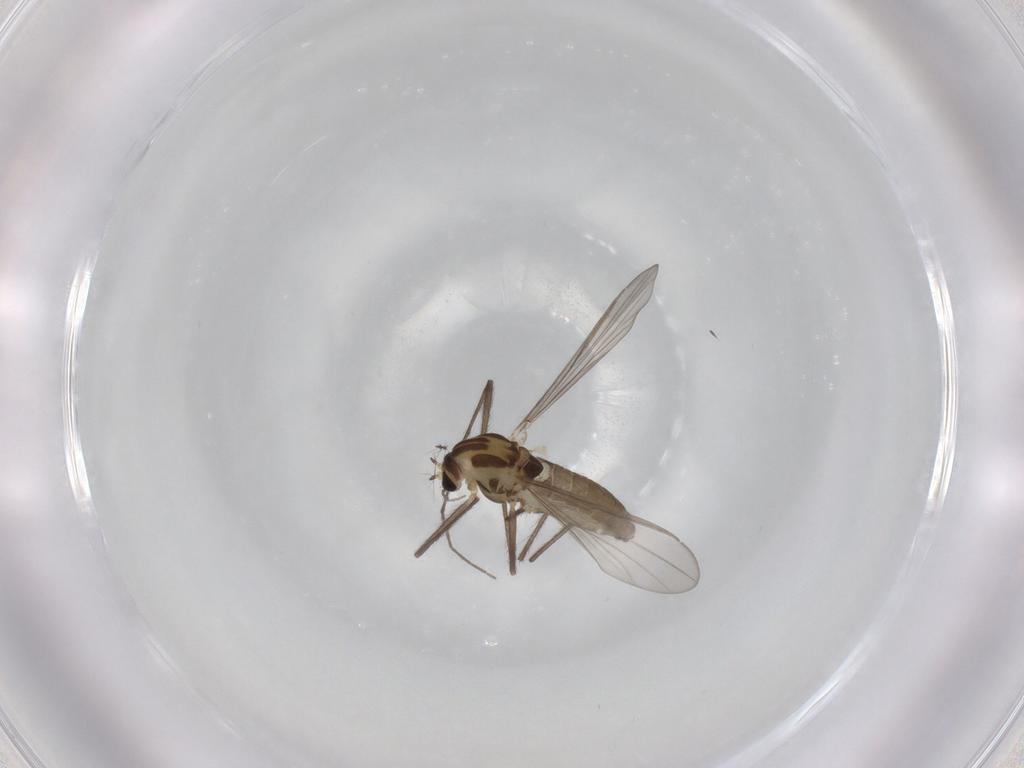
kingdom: Animalia
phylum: Arthropoda
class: Insecta
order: Diptera
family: Chironomidae
